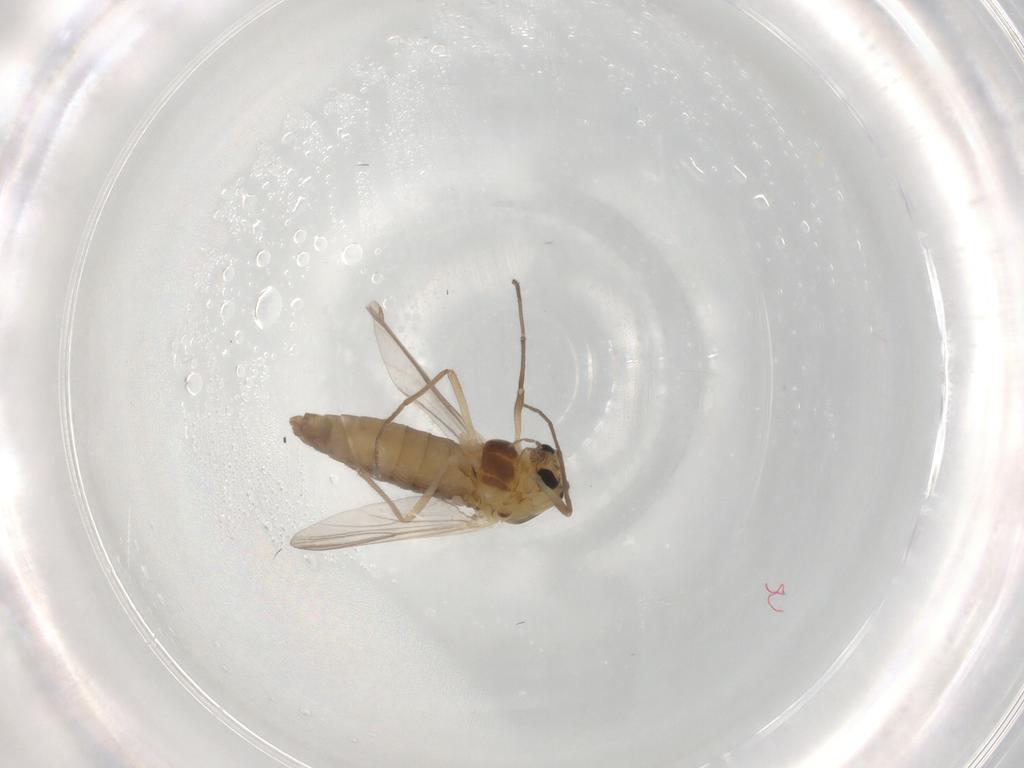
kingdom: Animalia
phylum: Arthropoda
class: Insecta
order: Diptera
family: Chironomidae
